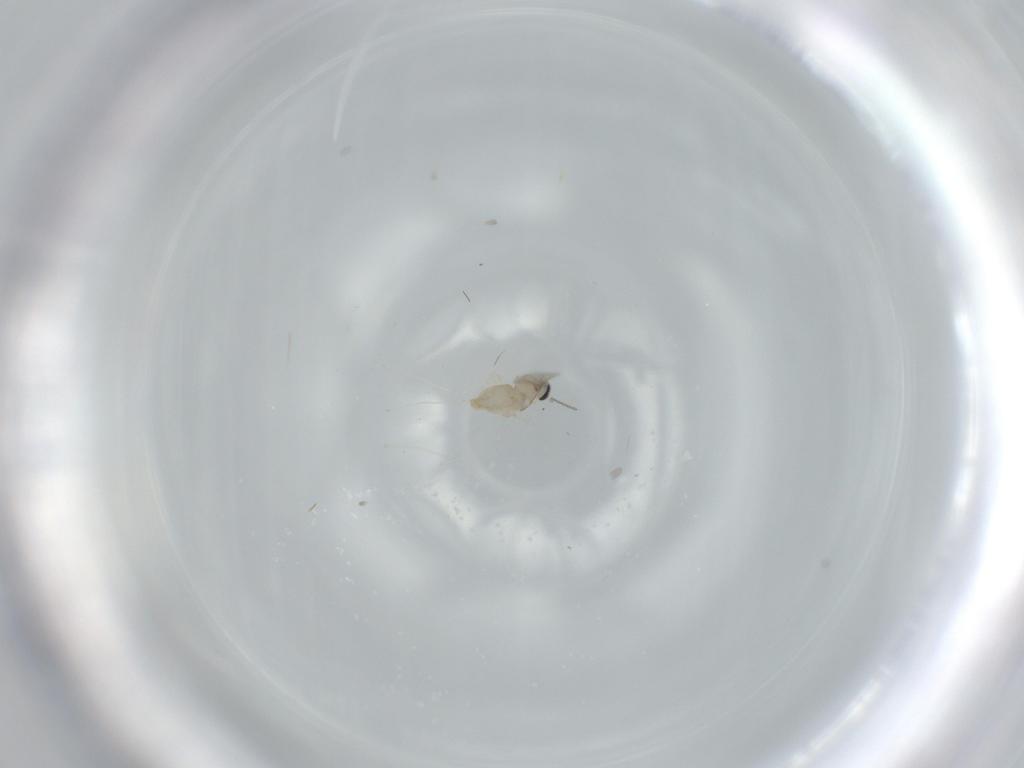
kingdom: Animalia
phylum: Arthropoda
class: Insecta
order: Diptera
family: Cecidomyiidae
